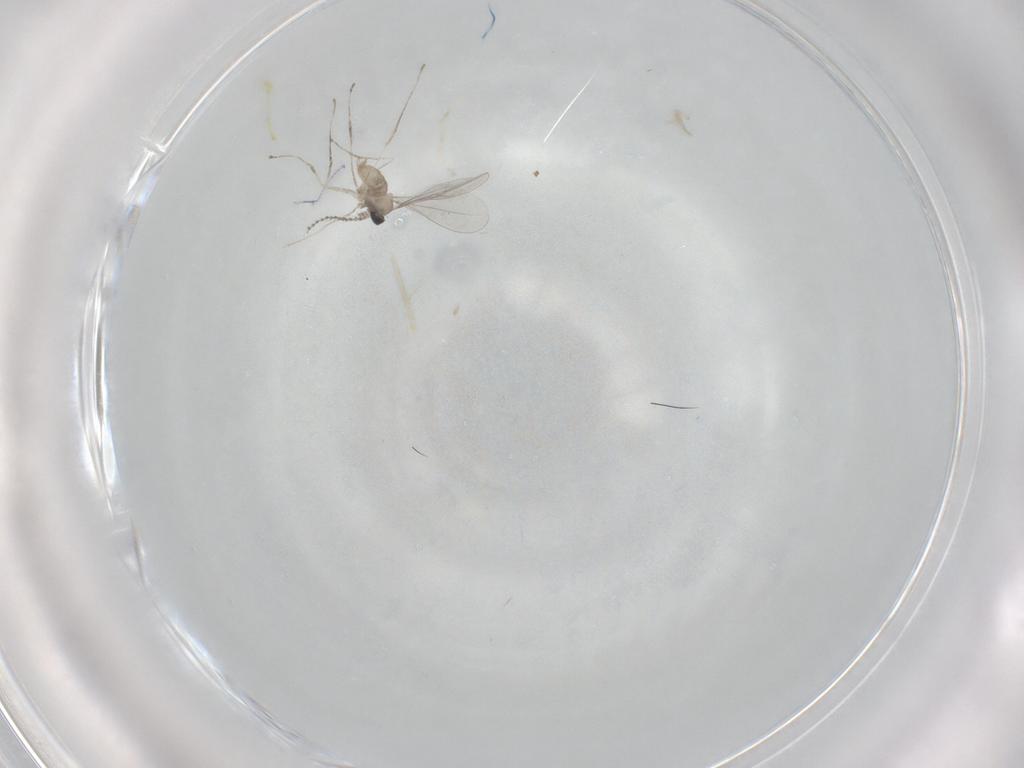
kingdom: Animalia
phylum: Arthropoda
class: Insecta
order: Diptera
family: Cecidomyiidae
